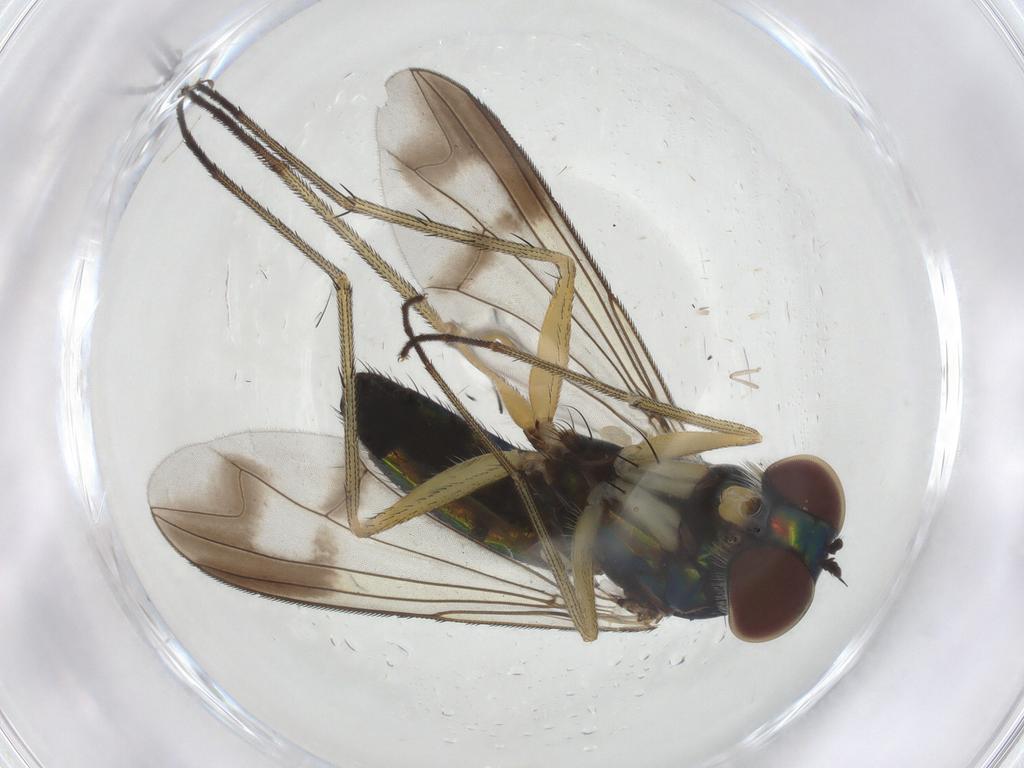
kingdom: Animalia
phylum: Arthropoda
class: Insecta
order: Diptera
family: Dolichopodidae
